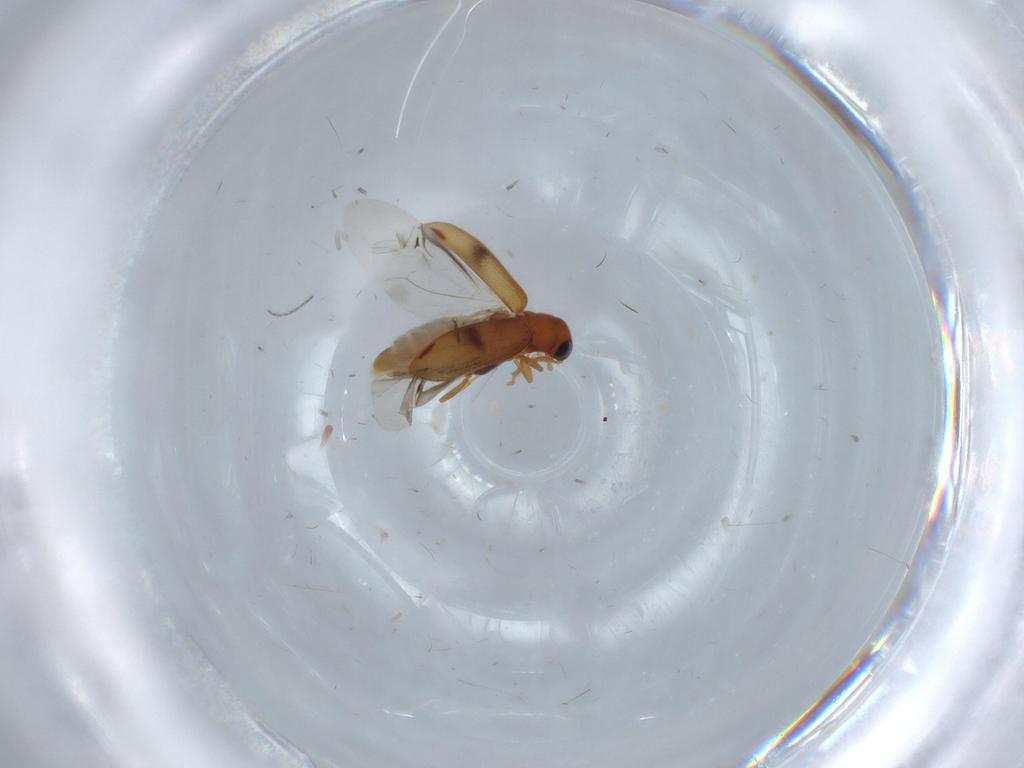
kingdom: Animalia
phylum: Arthropoda
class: Insecta
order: Coleoptera
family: Mycteridae
